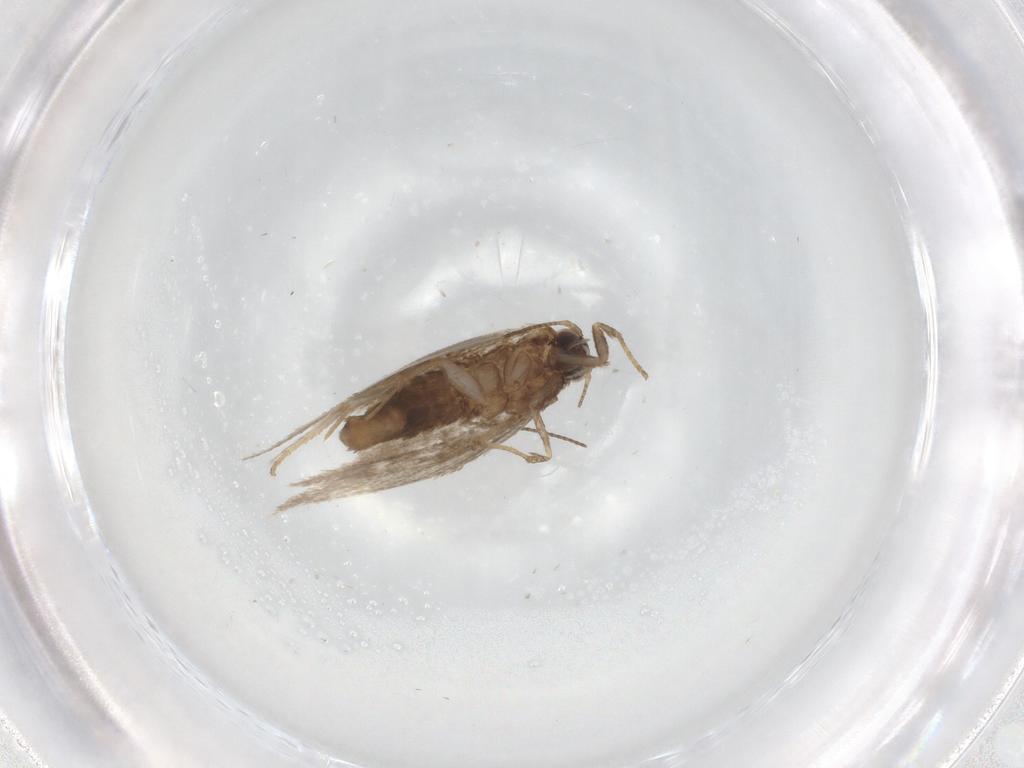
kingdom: Animalia
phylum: Arthropoda
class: Insecta
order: Lepidoptera
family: Nepticulidae
